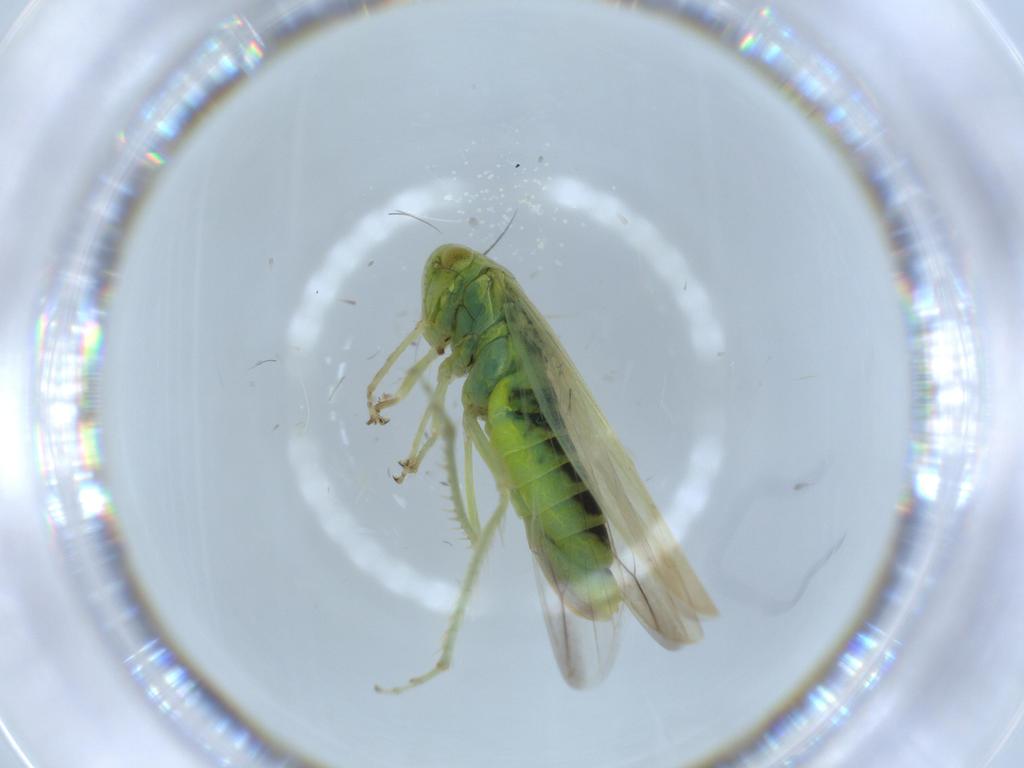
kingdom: Animalia
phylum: Arthropoda
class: Insecta
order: Hemiptera
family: Cicadellidae
